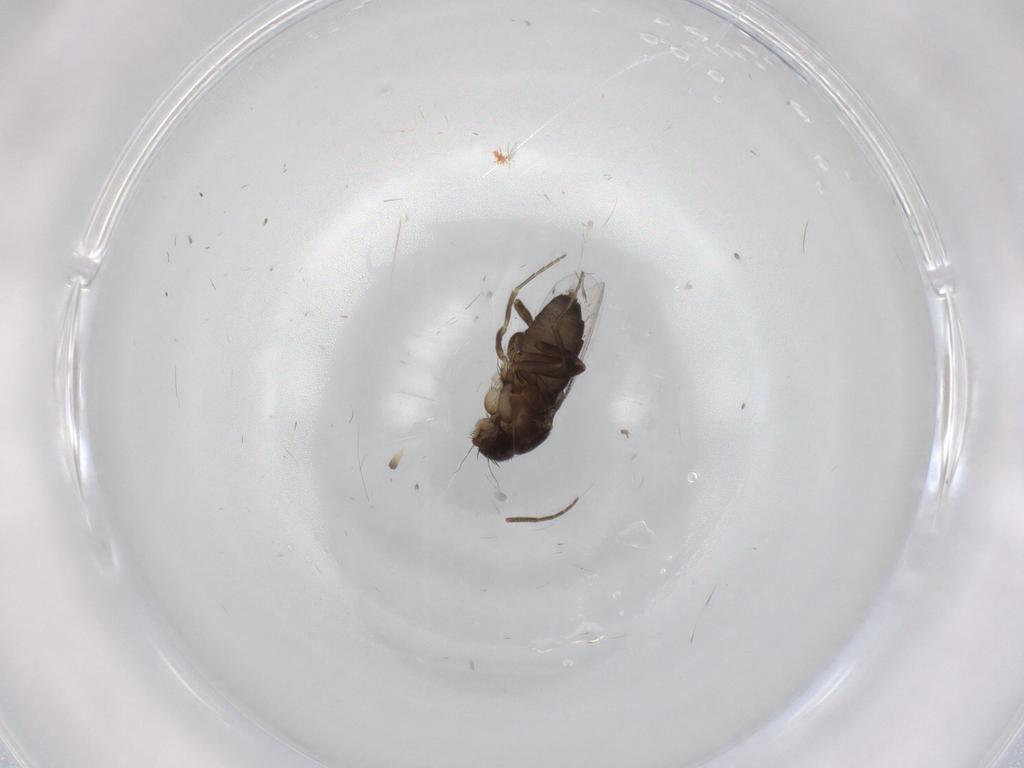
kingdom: Animalia
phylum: Arthropoda
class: Insecta
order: Diptera
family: Phoridae
